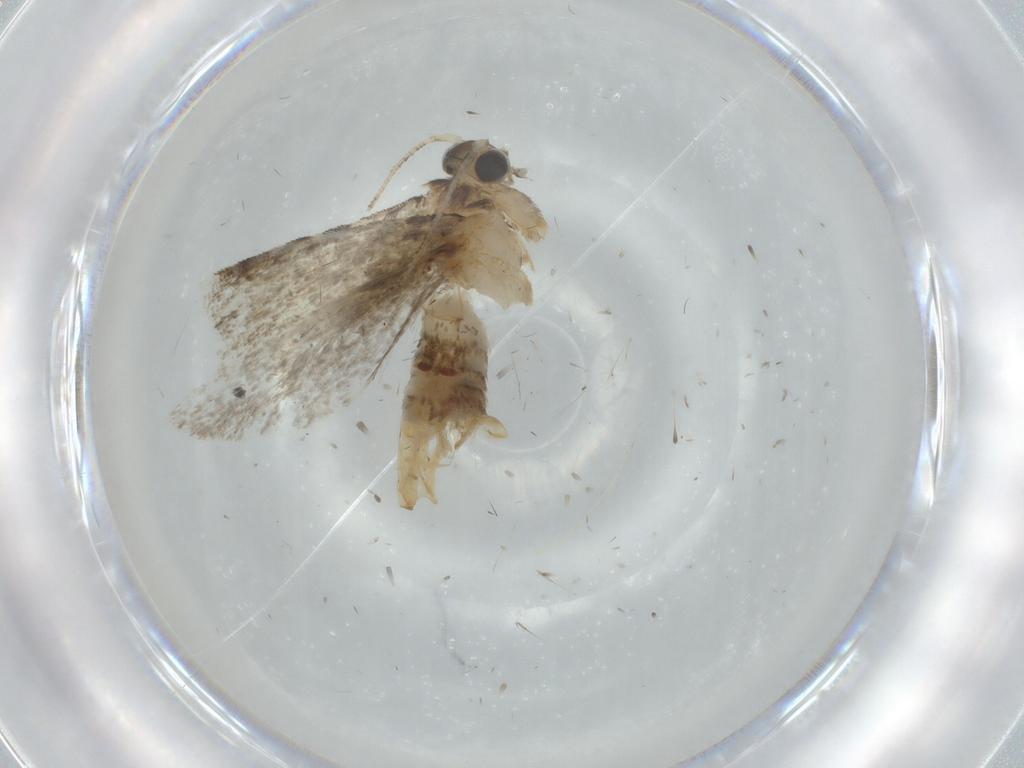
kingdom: Animalia
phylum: Arthropoda
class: Insecta
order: Lepidoptera
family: Tineidae
